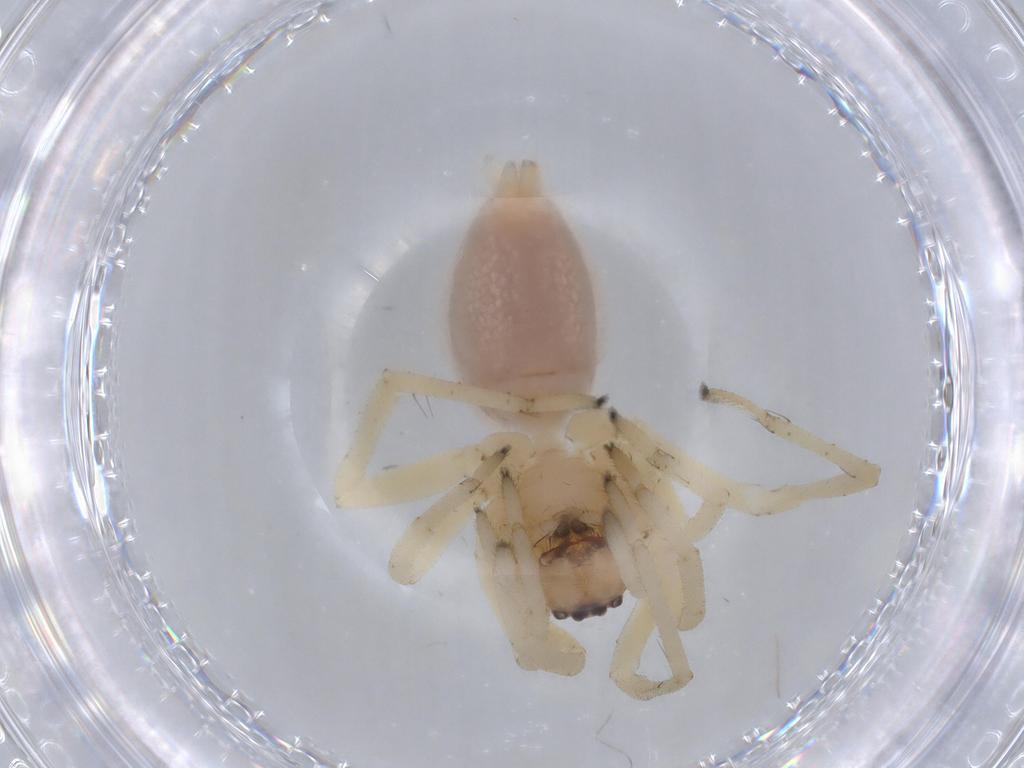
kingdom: Animalia
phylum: Arthropoda
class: Arachnida
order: Araneae
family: Cheiracanthiidae
